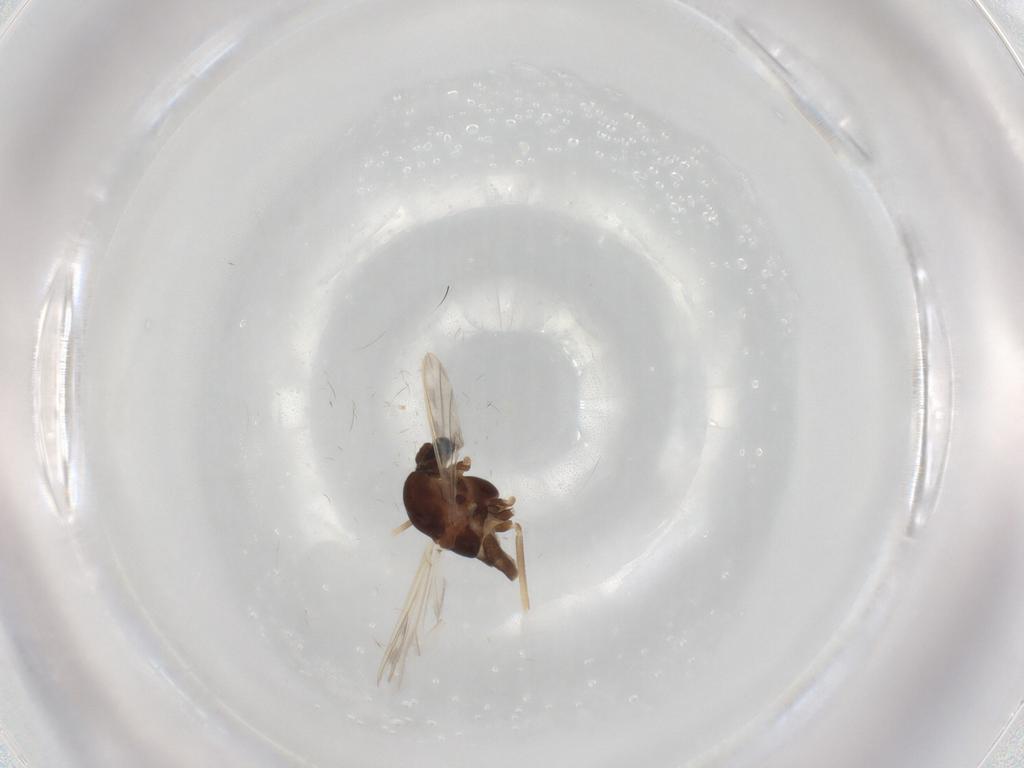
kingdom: Animalia
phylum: Arthropoda
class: Insecta
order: Diptera
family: Chironomidae
